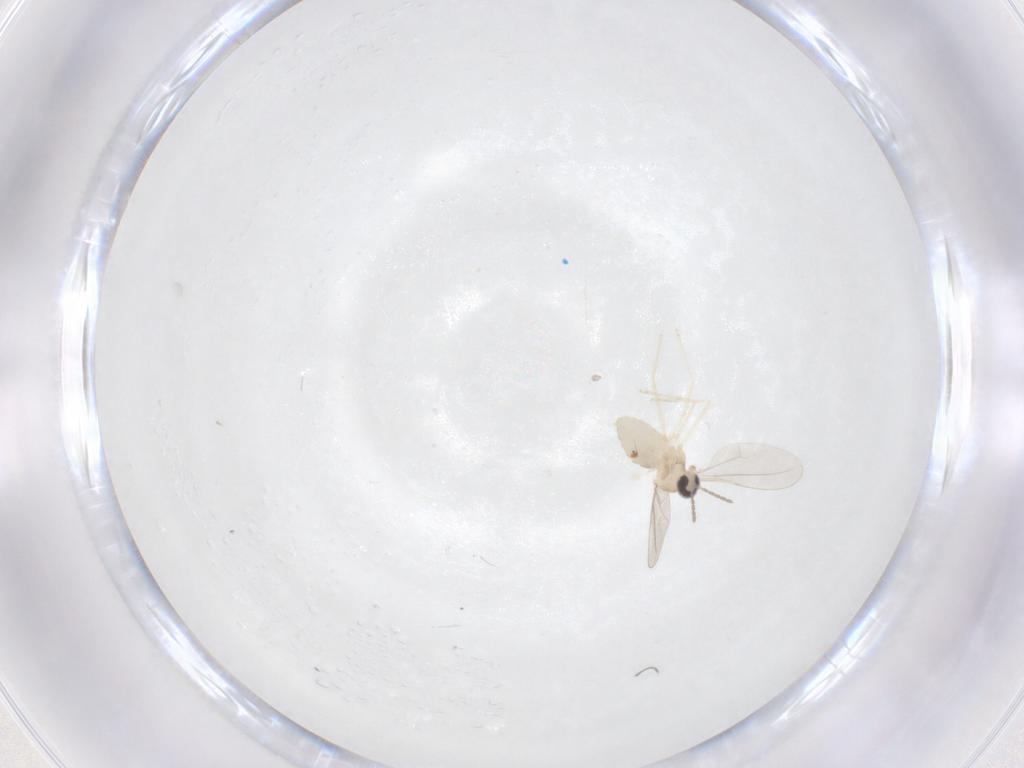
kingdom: Animalia
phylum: Arthropoda
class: Insecta
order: Diptera
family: Cecidomyiidae
